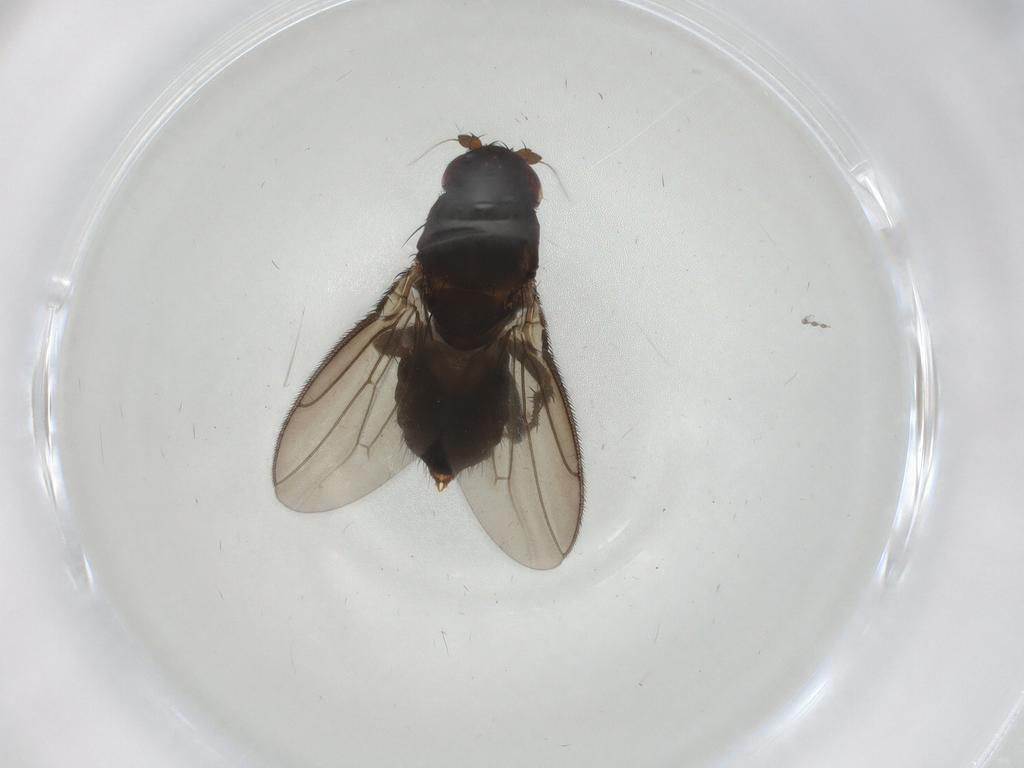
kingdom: Animalia
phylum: Arthropoda
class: Insecta
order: Diptera
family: Sphaeroceridae
